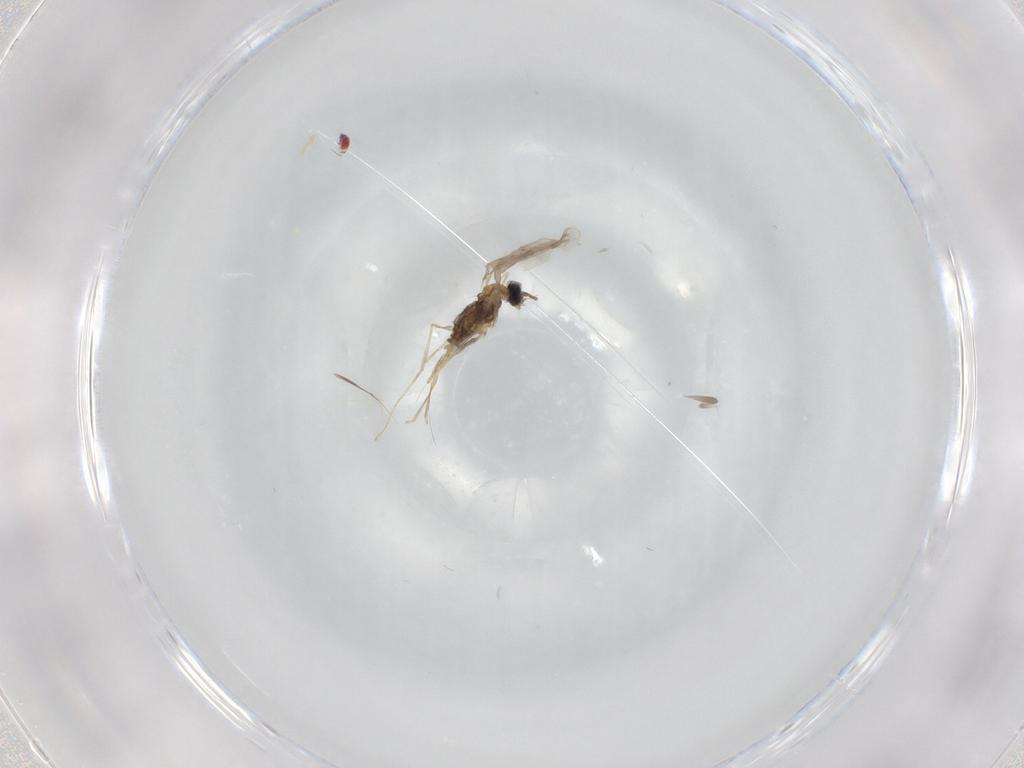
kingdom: Animalia
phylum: Arthropoda
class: Insecta
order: Diptera
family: Cecidomyiidae
